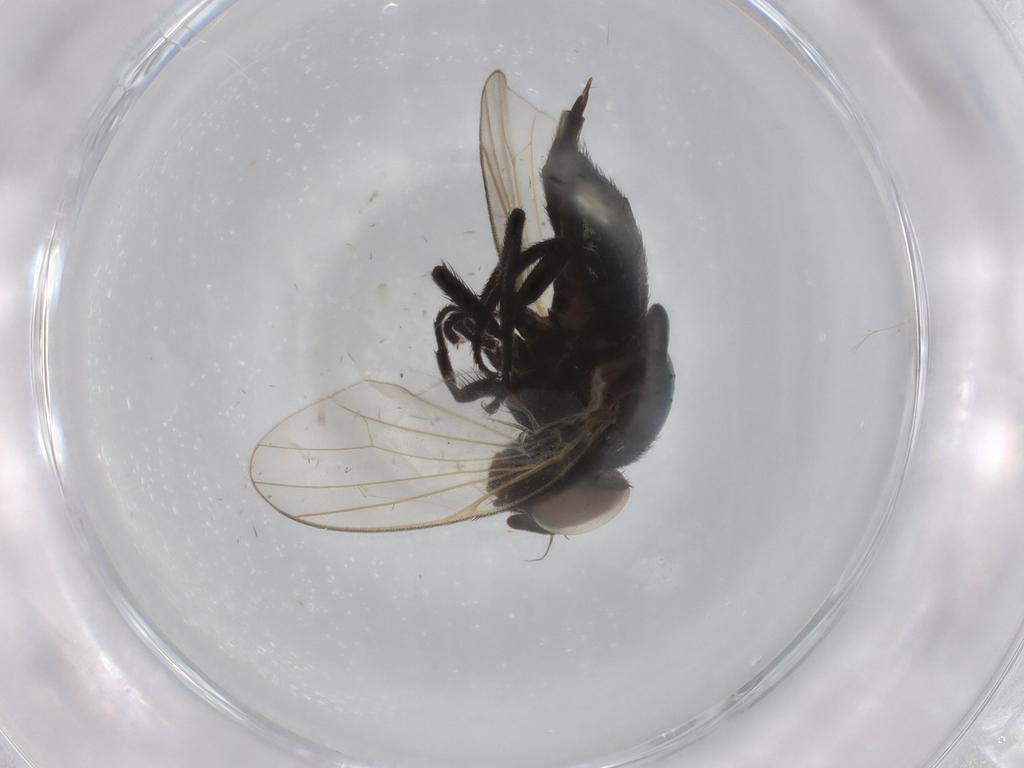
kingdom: Animalia
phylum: Arthropoda
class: Insecta
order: Diptera
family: Lonchaeidae
